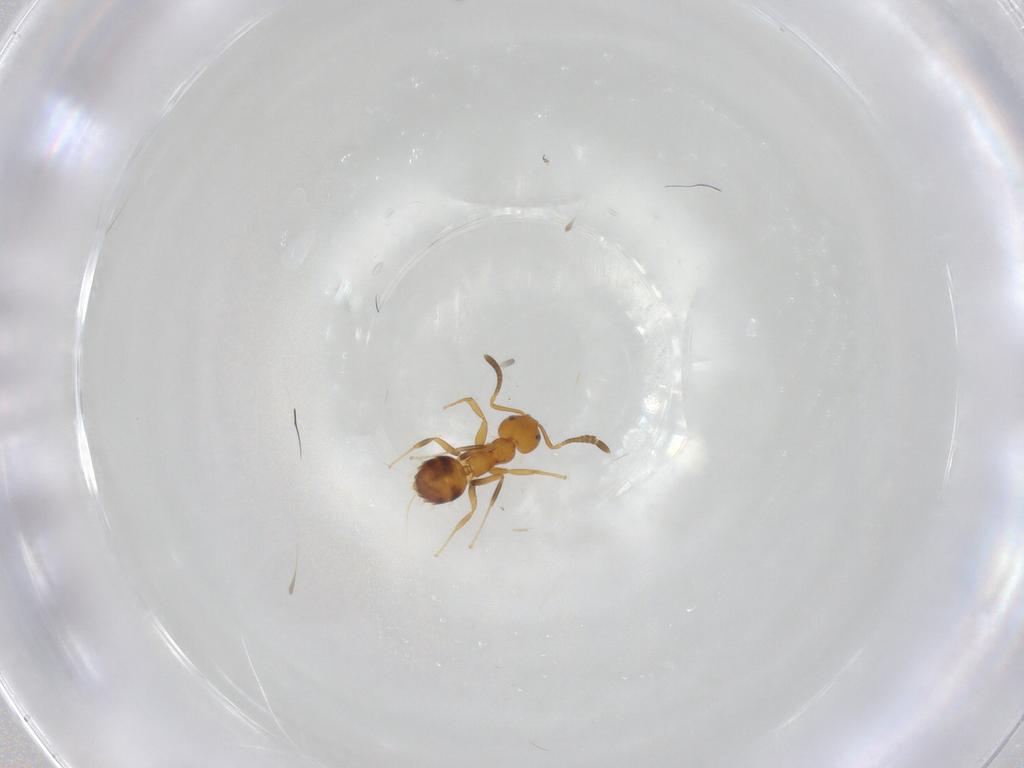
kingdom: Animalia
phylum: Arthropoda
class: Insecta
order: Hymenoptera
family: Formicidae
